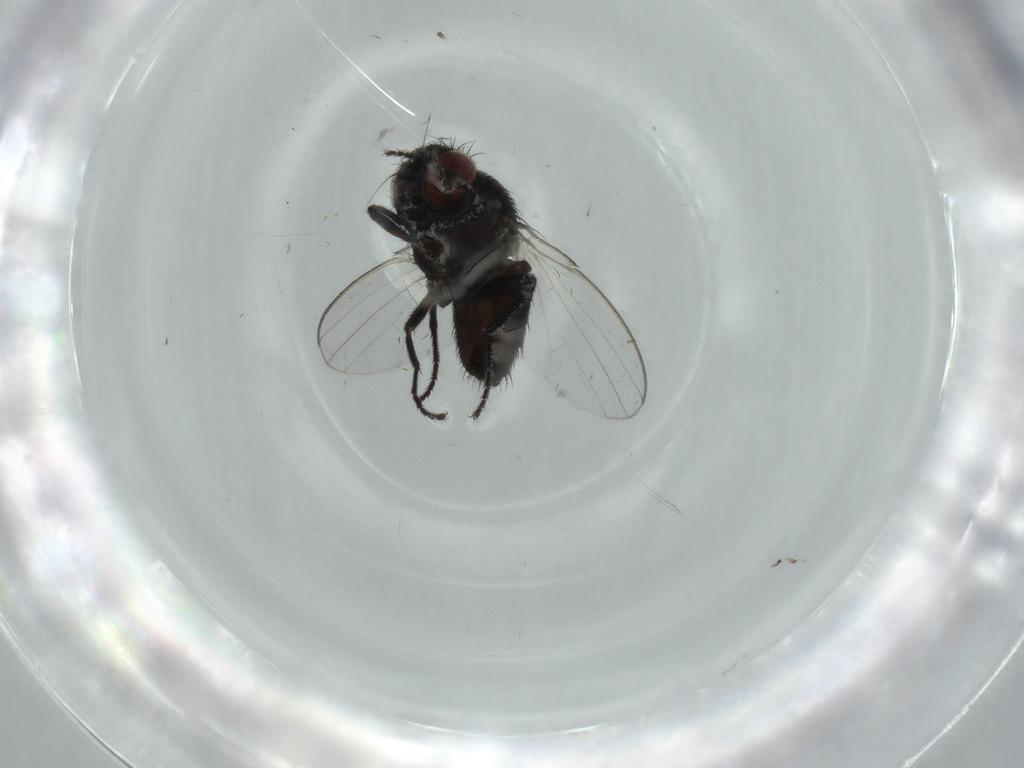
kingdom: Animalia
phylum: Arthropoda
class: Insecta
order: Diptera
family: Milichiidae
